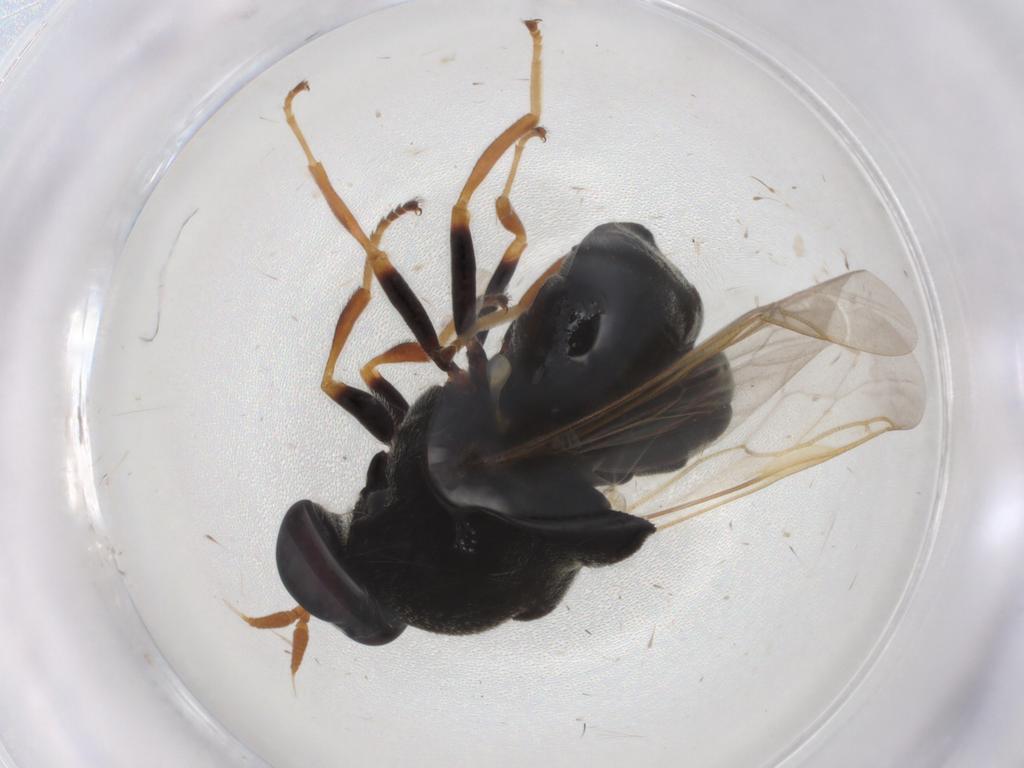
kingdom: Animalia
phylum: Arthropoda
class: Insecta
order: Diptera
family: Stratiomyidae
